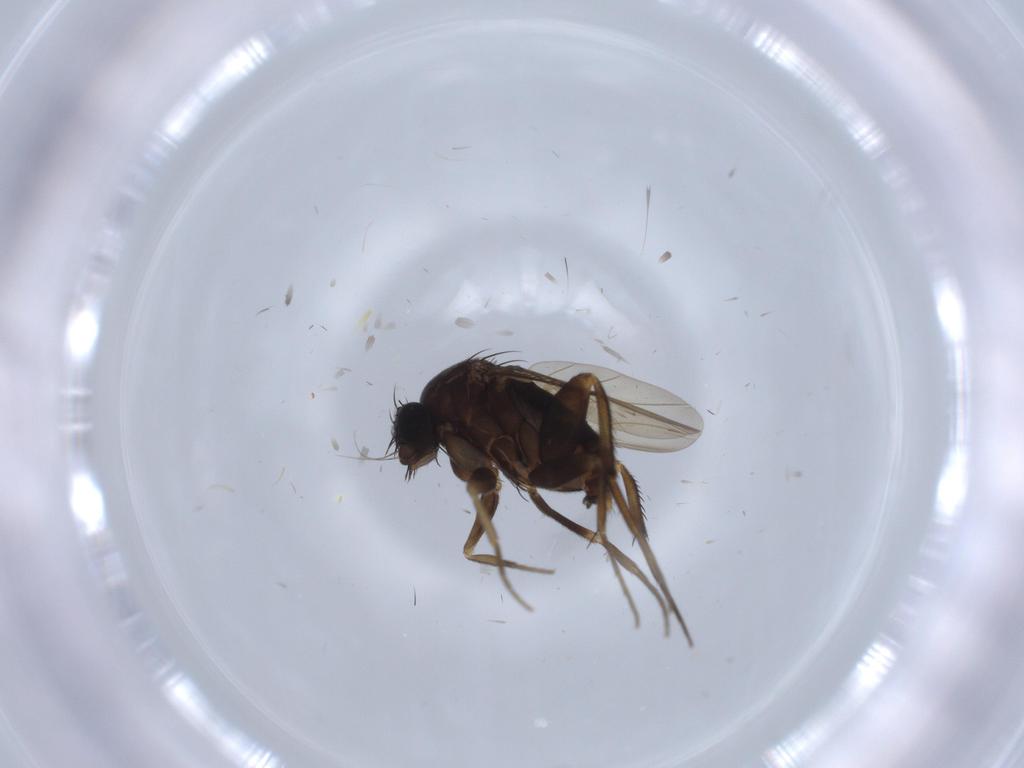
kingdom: Animalia
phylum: Arthropoda
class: Insecta
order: Diptera
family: Phoridae
